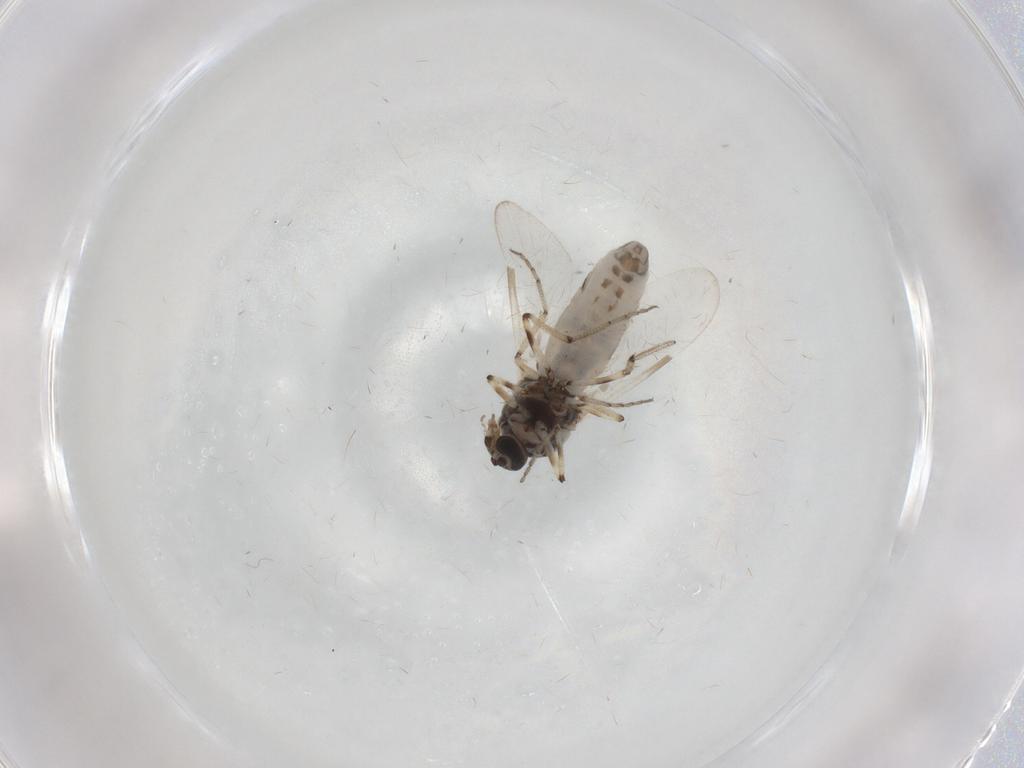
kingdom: Animalia
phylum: Arthropoda
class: Insecta
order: Diptera
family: Ceratopogonidae
